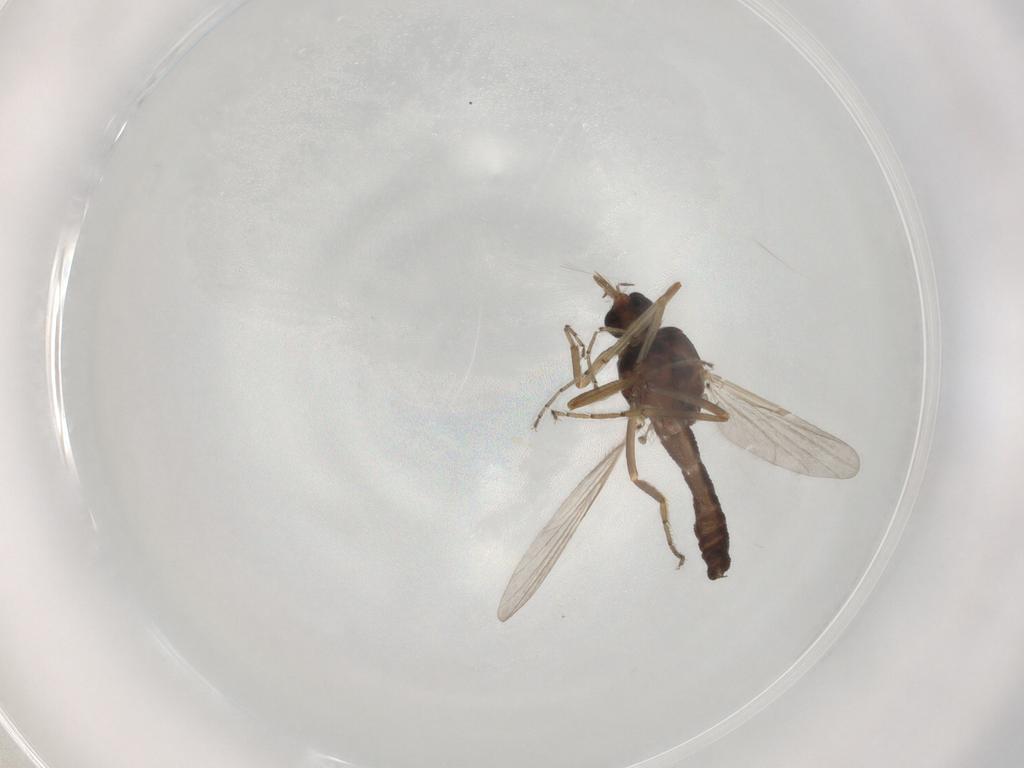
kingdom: Animalia
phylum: Arthropoda
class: Insecta
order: Diptera
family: Ceratopogonidae
